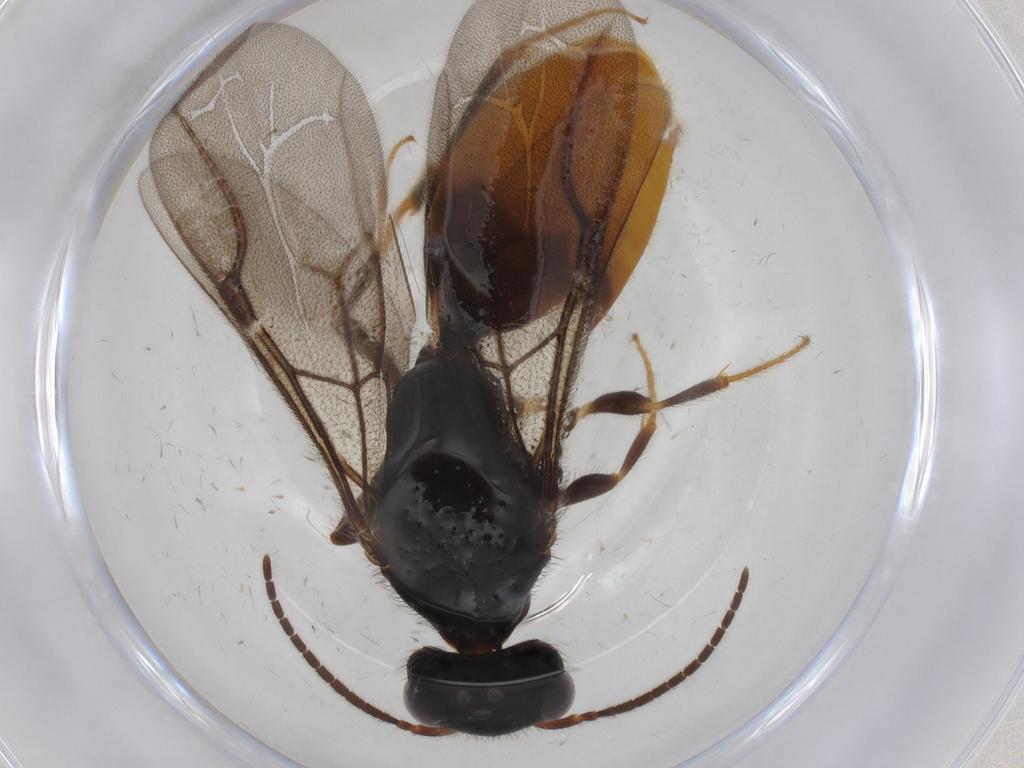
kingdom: Animalia
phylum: Arthropoda
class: Insecta
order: Hymenoptera
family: Bethylidae
